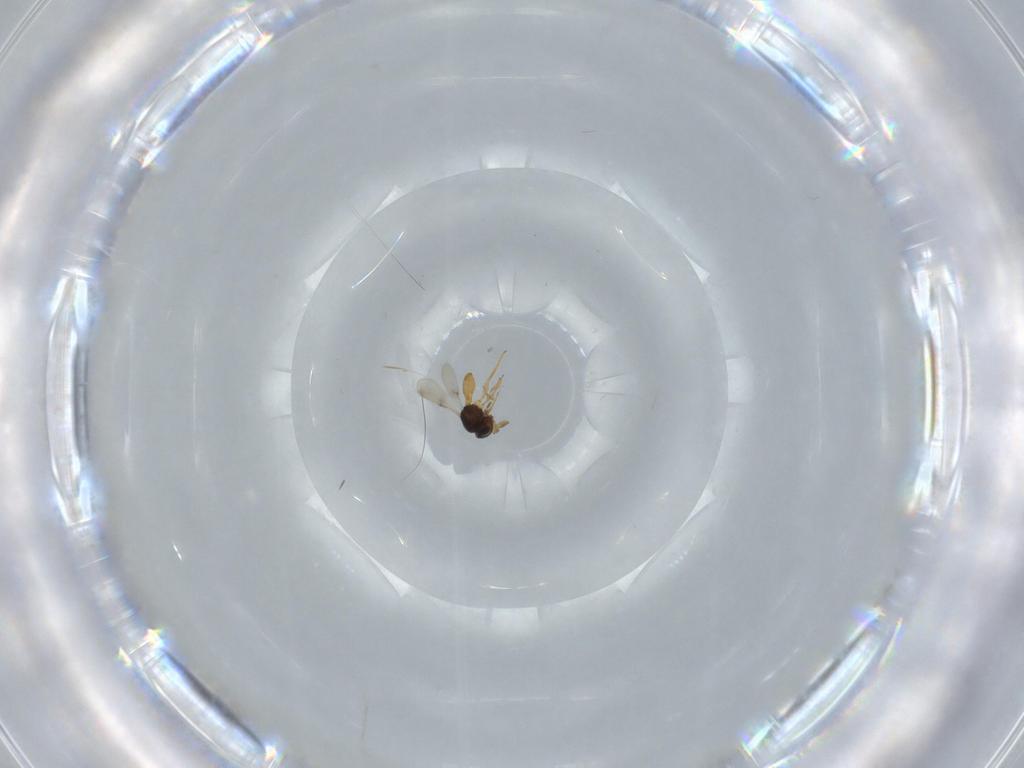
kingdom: Animalia
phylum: Arthropoda
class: Insecta
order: Hymenoptera
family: Scelionidae
